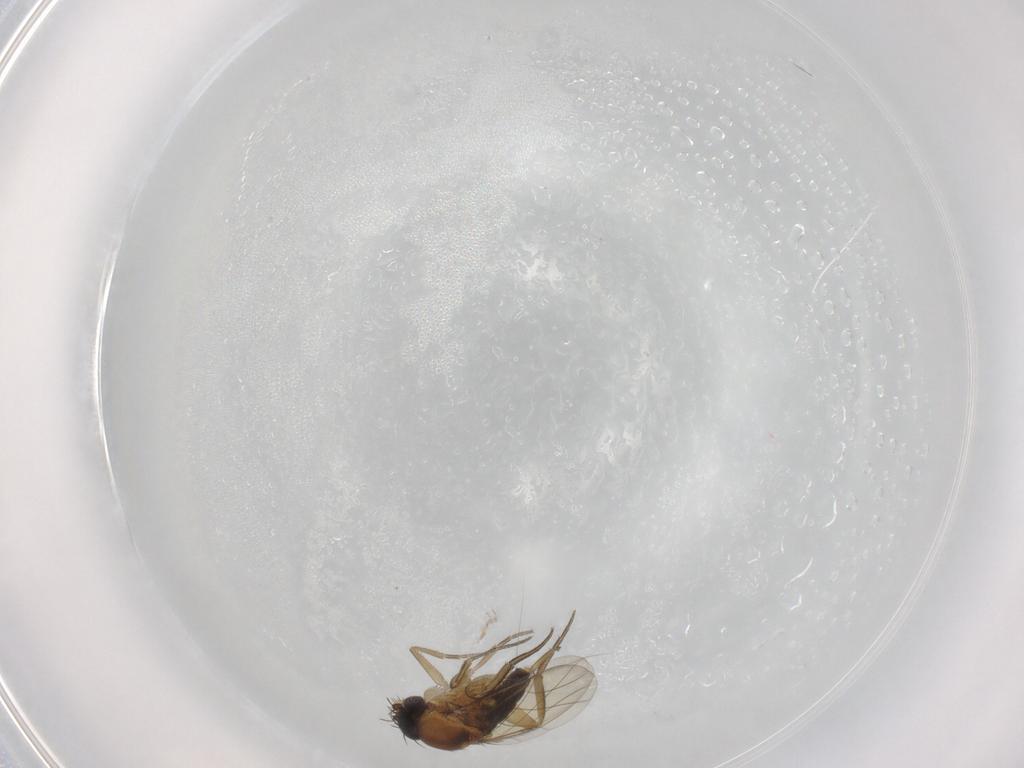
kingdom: Animalia
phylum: Arthropoda
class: Insecta
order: Diptera
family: Phoridae
